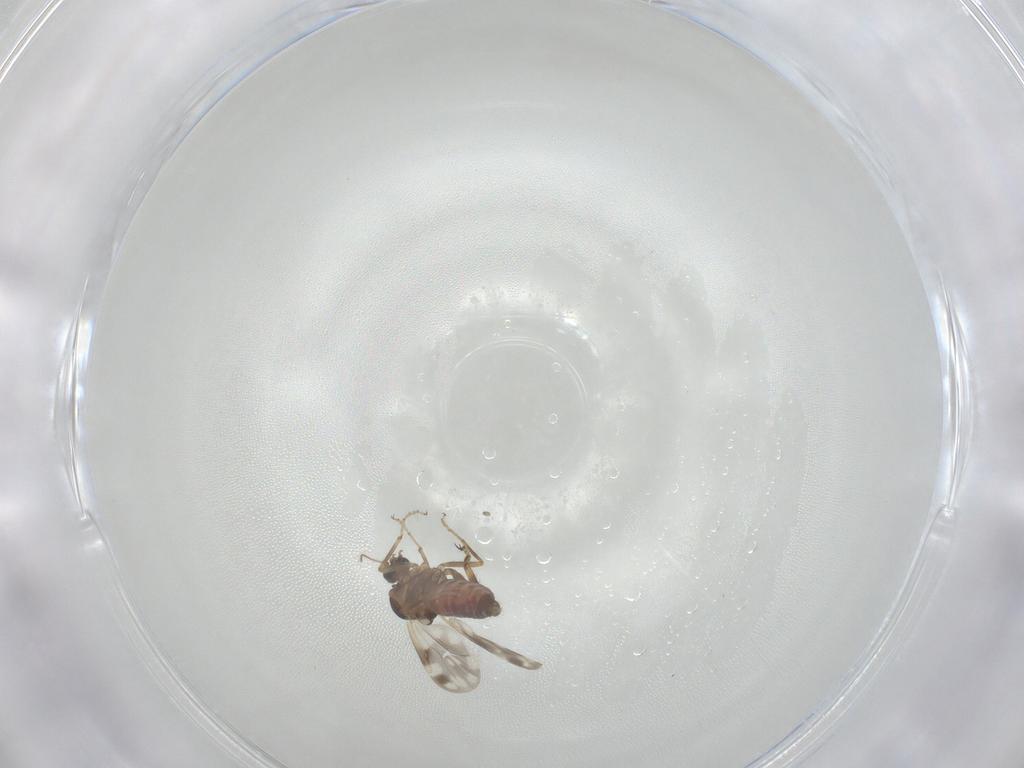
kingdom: Animalia
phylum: Arthropoda
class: Insecta
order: Diptera
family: Ceratopogonidae
